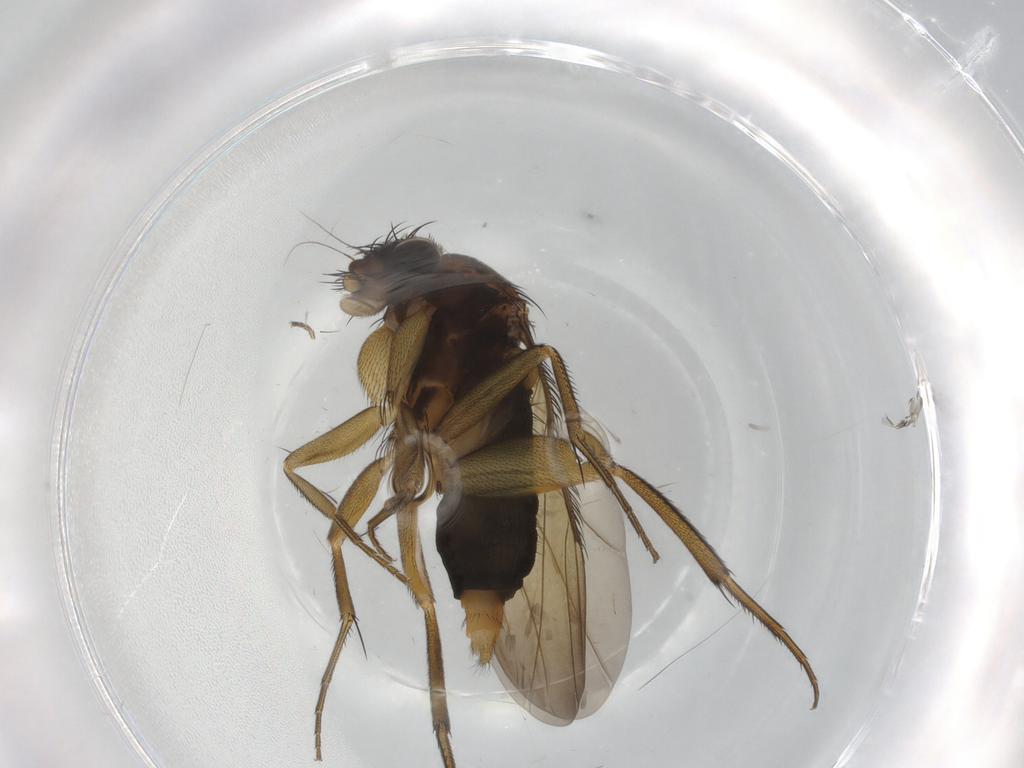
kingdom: Animalia
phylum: Arthropoda
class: Insecta
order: Diptera
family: Phoridae
